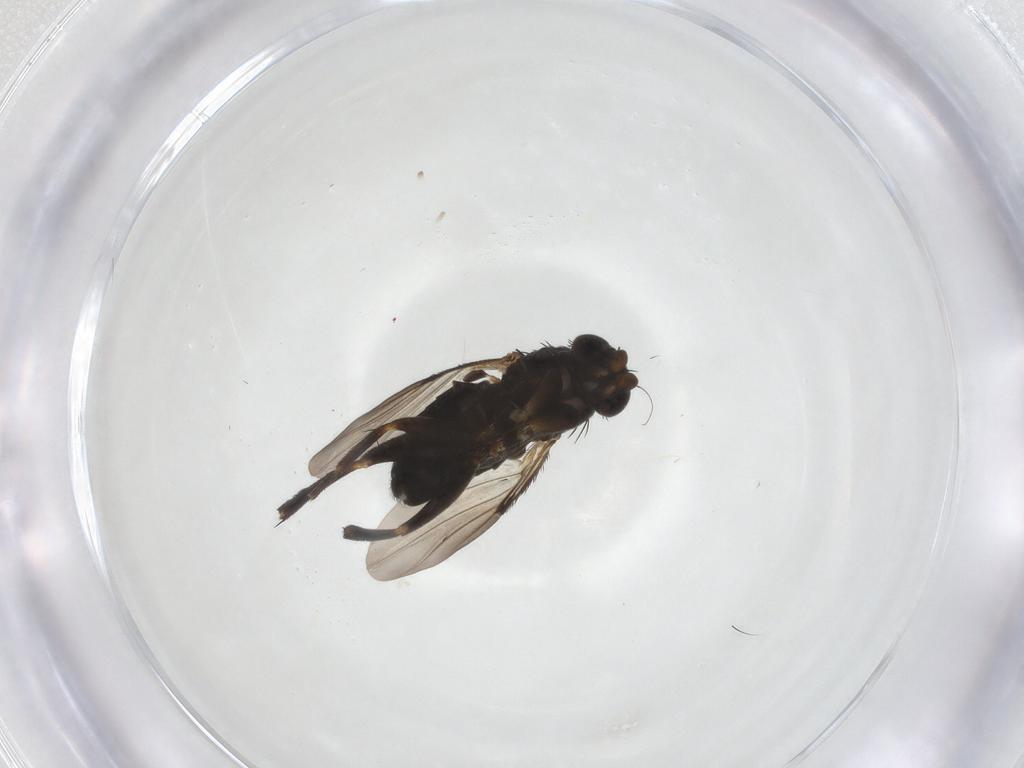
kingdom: Animalia
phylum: Arthropoda
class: Insecta
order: Diptera
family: Phoridae
